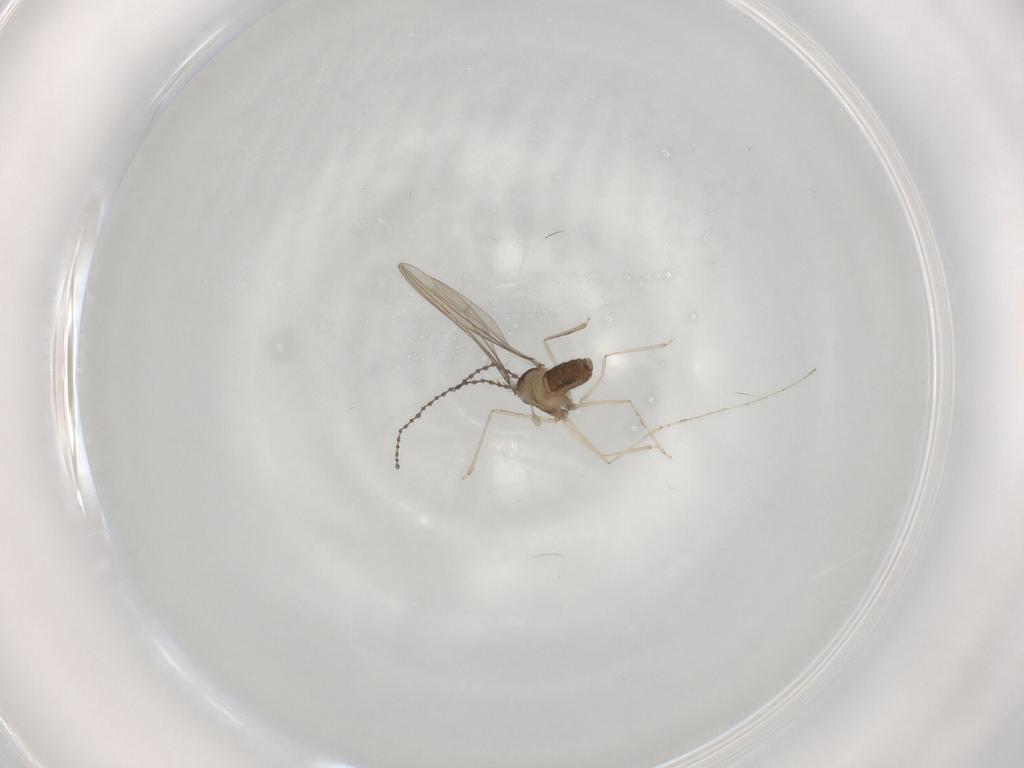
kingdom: Animalia
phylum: Arthropoda
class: Insecta
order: Diptera
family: Cecidomyiidae
